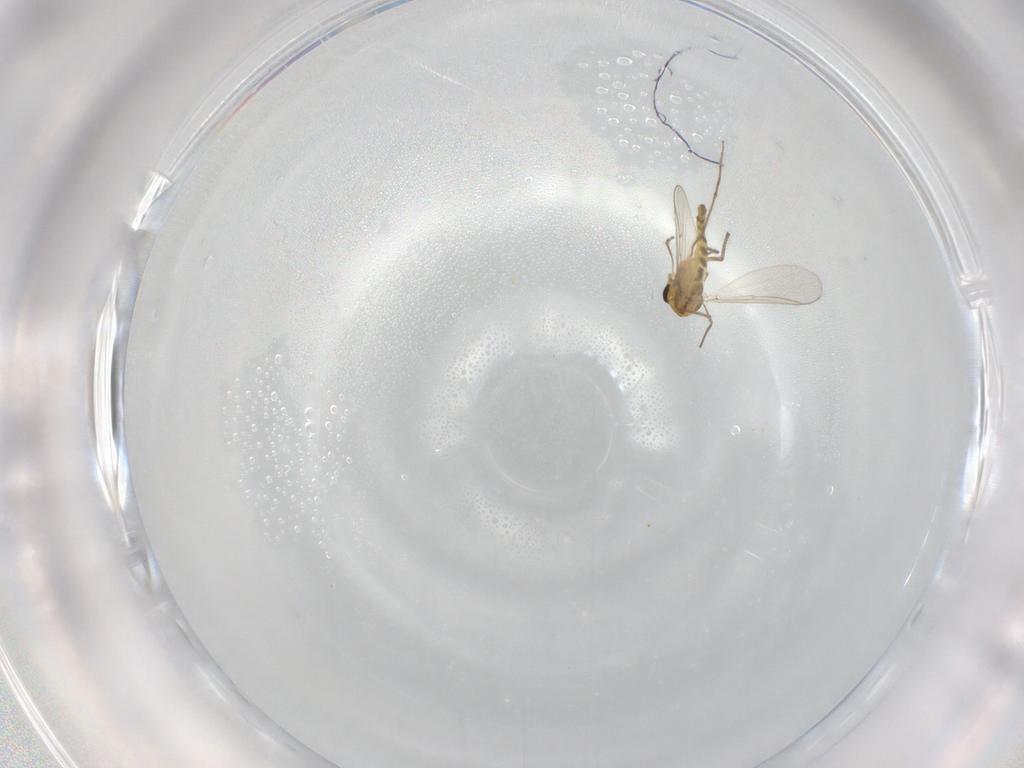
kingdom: Animalia
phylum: Arthropoda
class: Insecta
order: Diptera
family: Chironomidae
